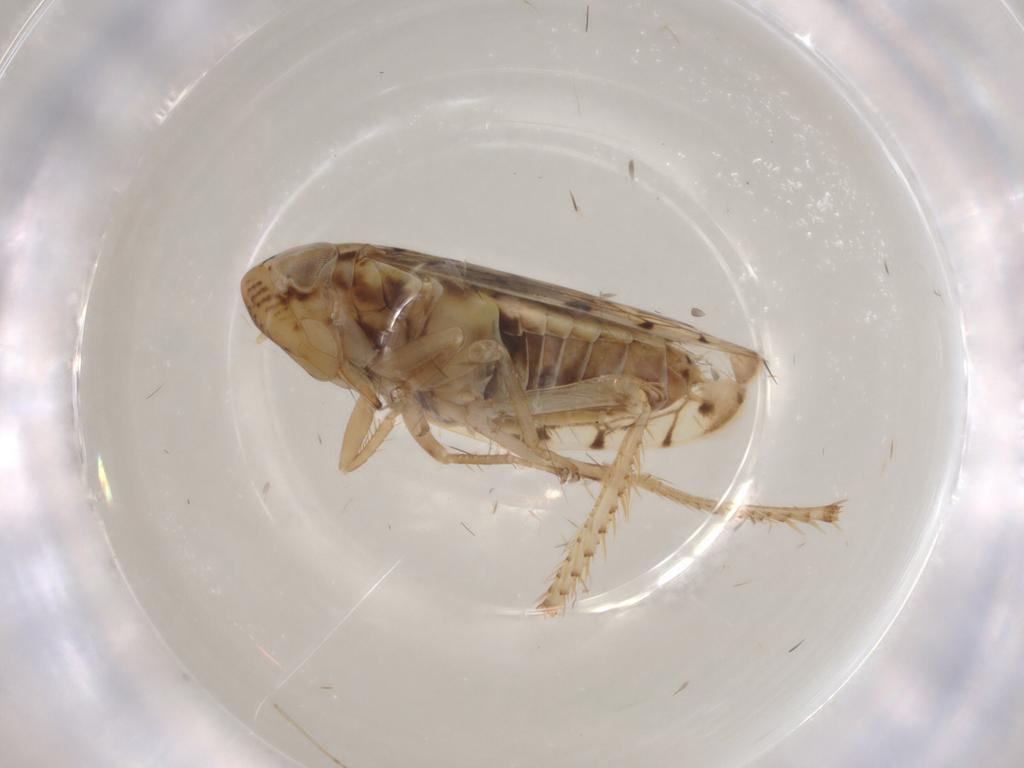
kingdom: Animalia
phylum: Arthropoda
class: Insecta
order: Hemiptera
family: Cicadellidae
